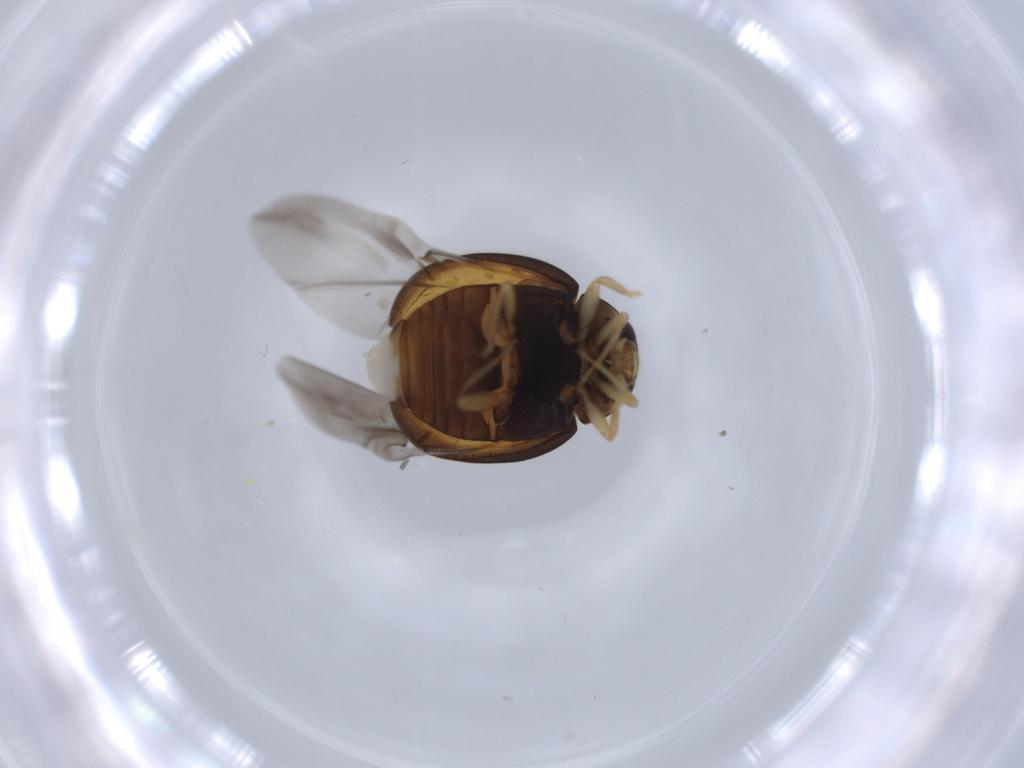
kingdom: Animalia
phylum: Arthropoda
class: Insecta
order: Coleoptera
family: Coccinellidae
